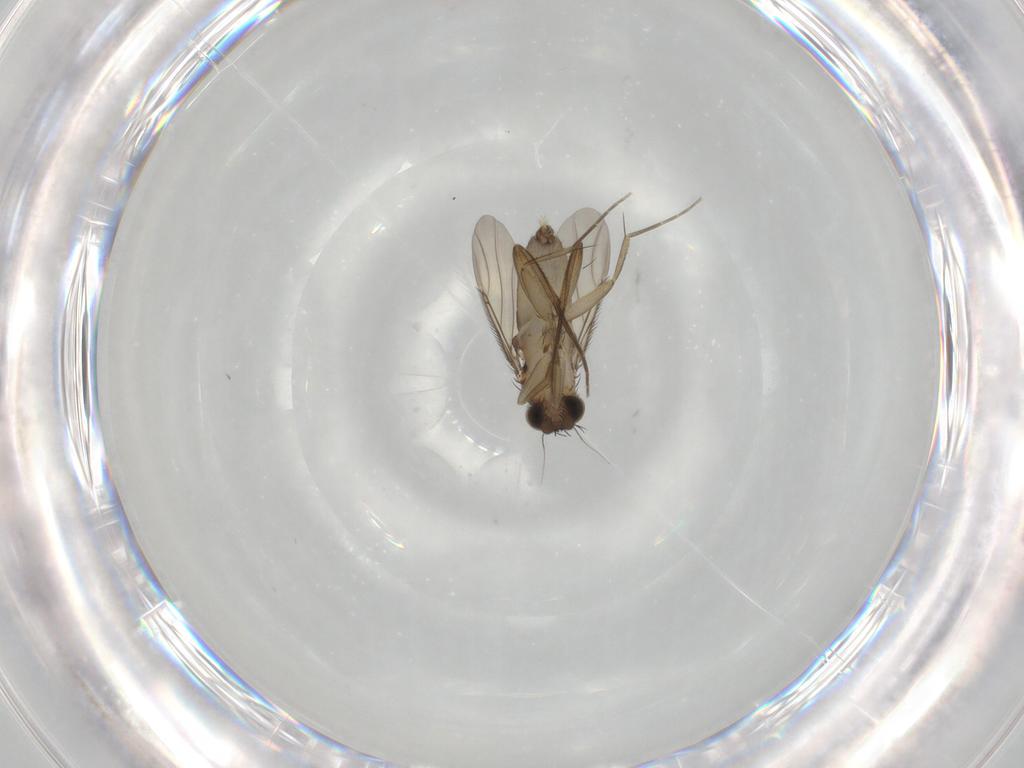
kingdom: Animalia
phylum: Arthropoda
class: Insecta
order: Diptera
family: Phoridae
